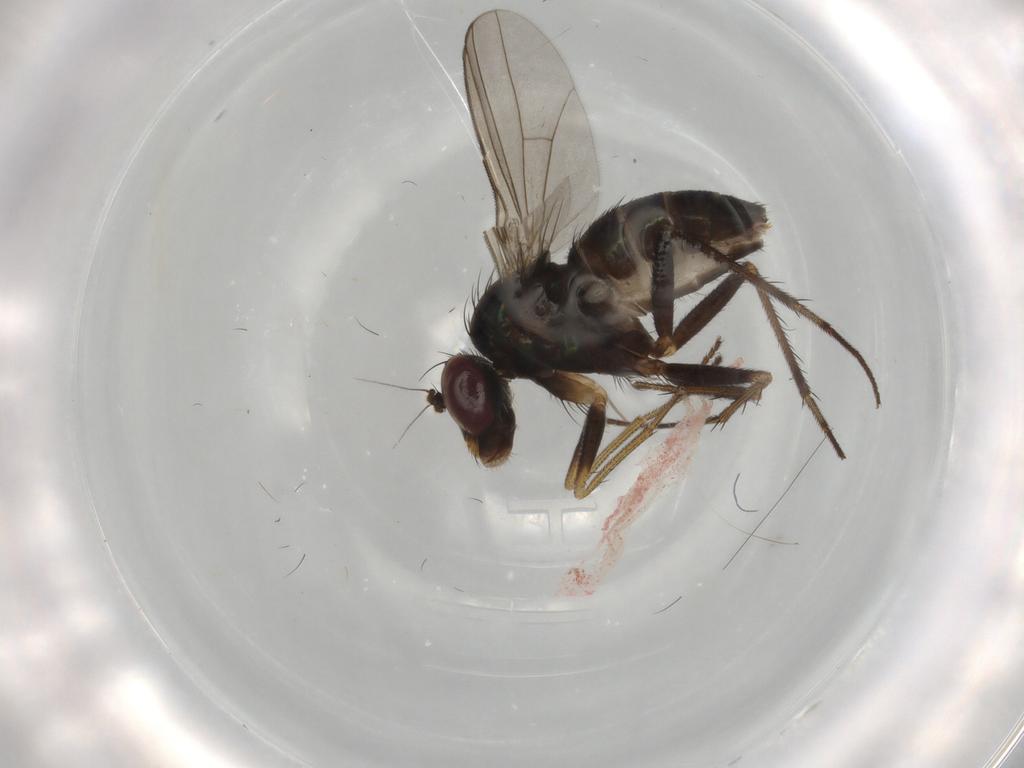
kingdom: Animalia
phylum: Arthropoda
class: Insecta
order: Diptera
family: Dolichopodidae
